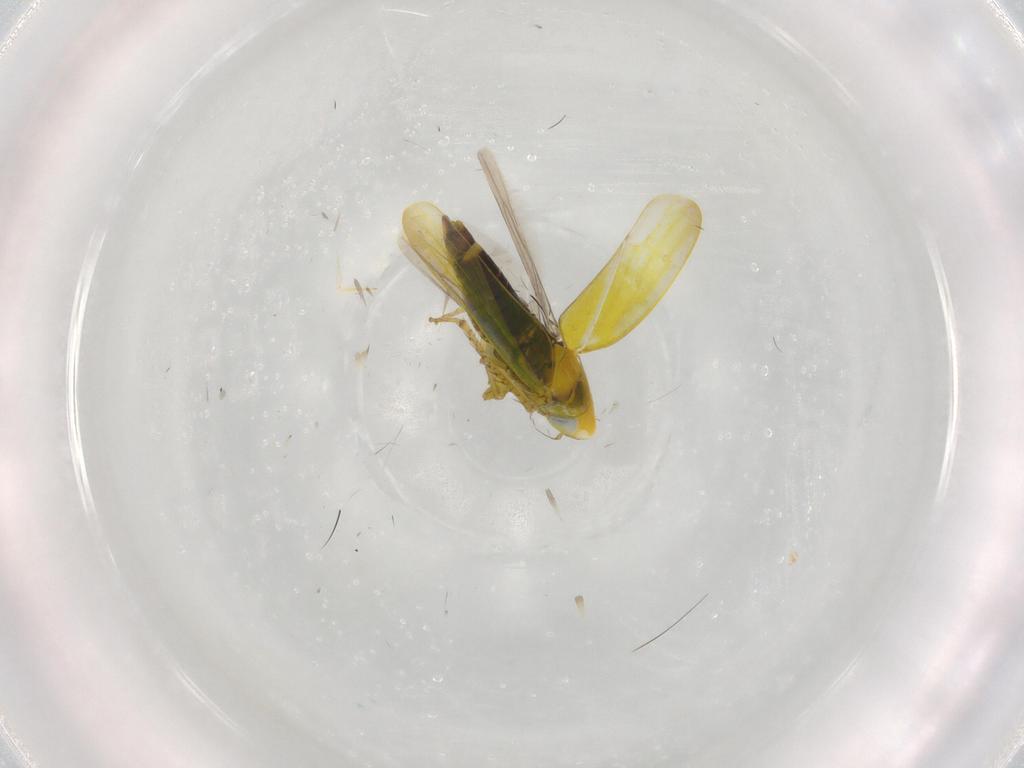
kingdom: Animalia
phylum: Arthropoda
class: Insecta
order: Hemiptera
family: Cicadellidae
